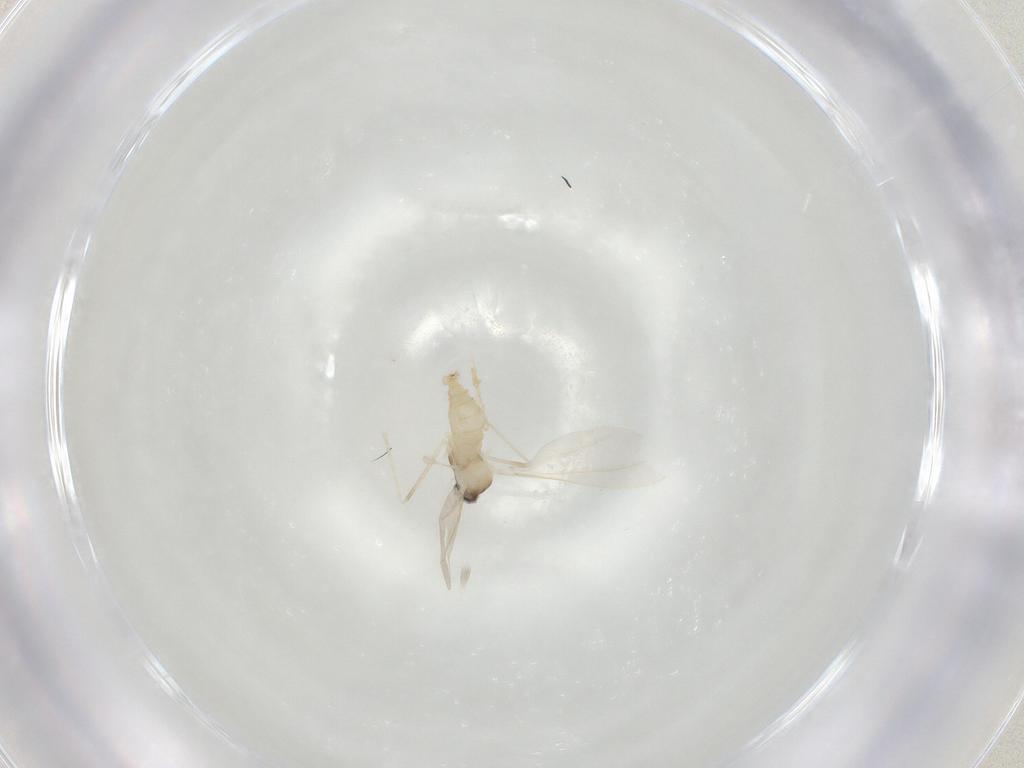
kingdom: Animalia
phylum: Arthropoda
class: Insecta
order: Diptera
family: Cecidomyiidae
